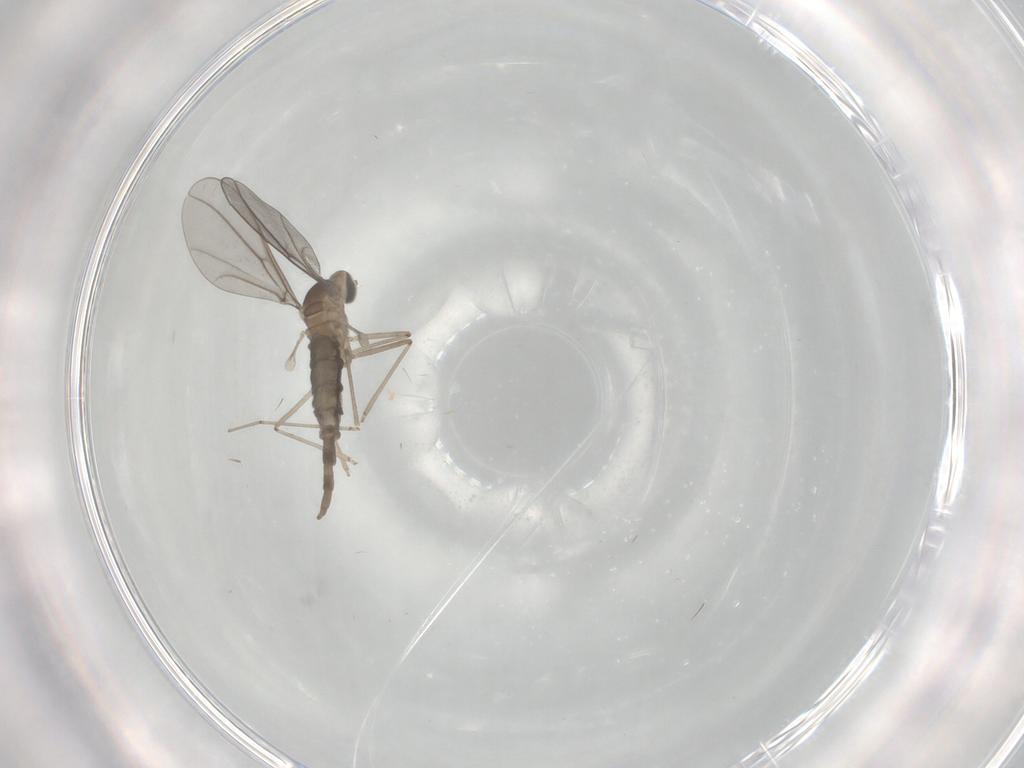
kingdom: Animalia
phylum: Arthropoda
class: Insecta
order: Diptera
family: Cecidomyiidae
